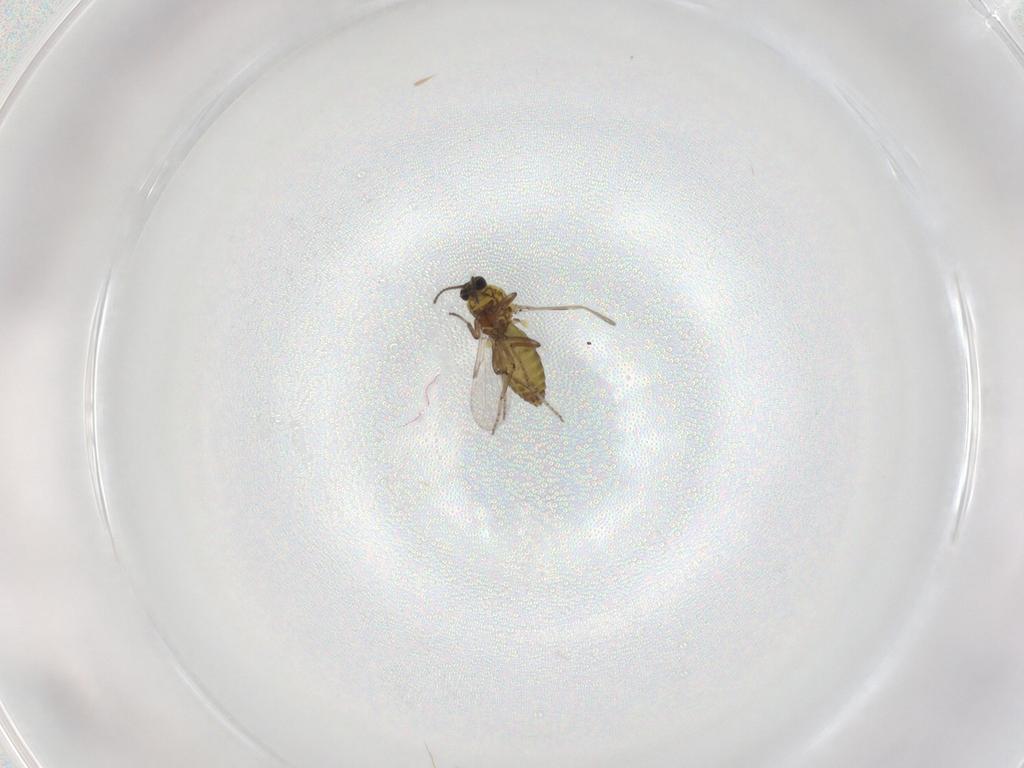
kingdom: Animalia
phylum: Arthropoda
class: Insecta
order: Diptera
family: Ceratopogonidae
